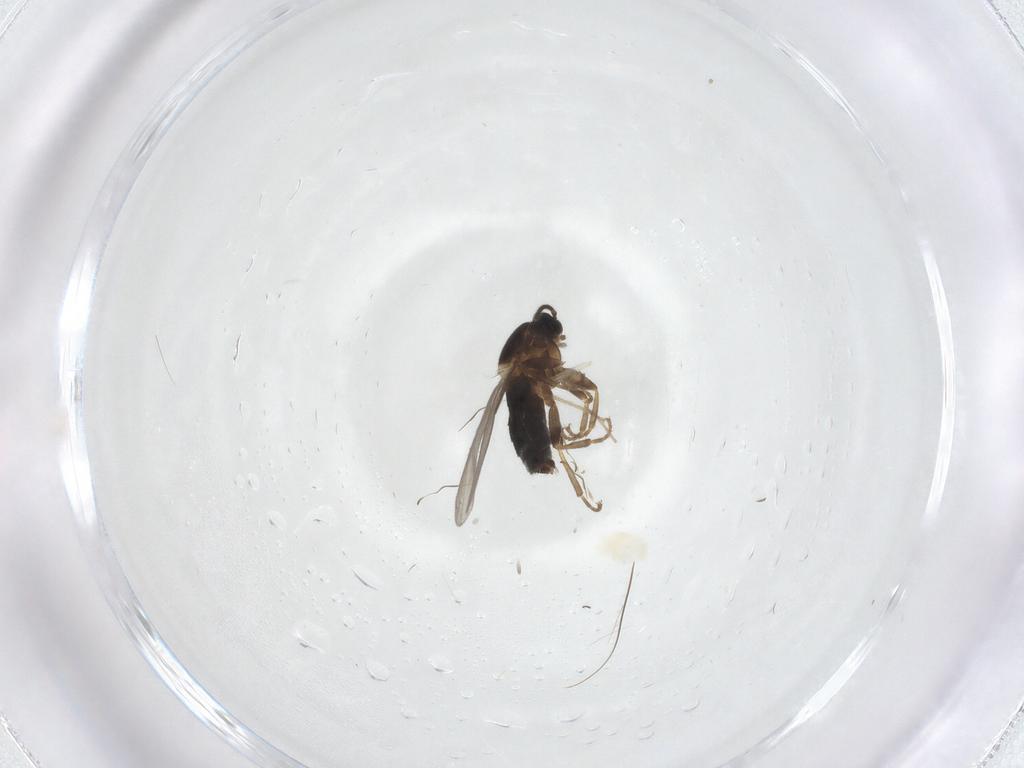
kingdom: Animalia
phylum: Arthropoda
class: Insecta
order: Diptera
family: Scatopsidae
